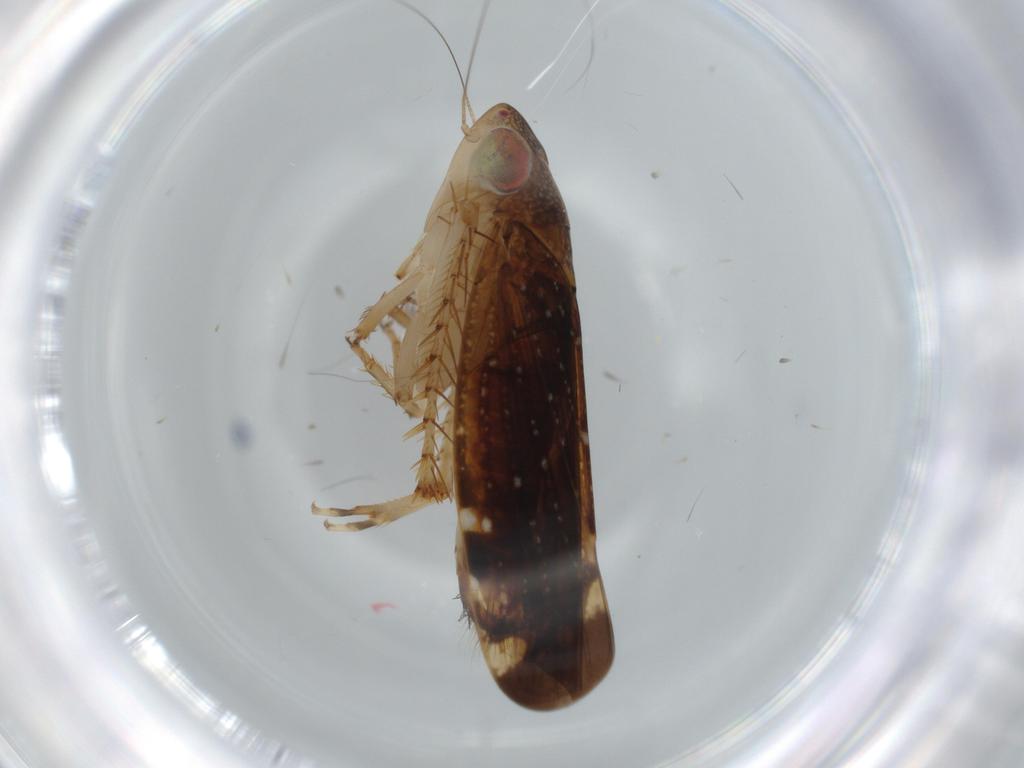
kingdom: Animalia
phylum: Arthropoda
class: Insecta
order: Hemiptera
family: Cicadellidae
